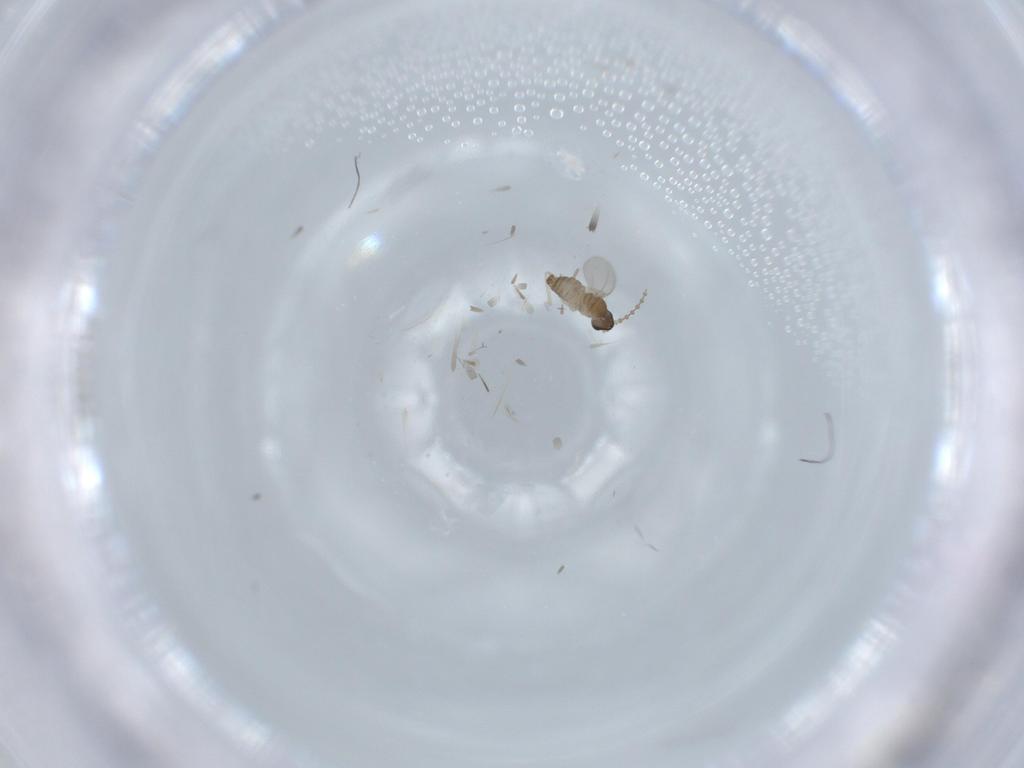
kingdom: Animalia
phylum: Arthropoda
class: Insecta
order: Diptera
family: Cecidomyiidae
